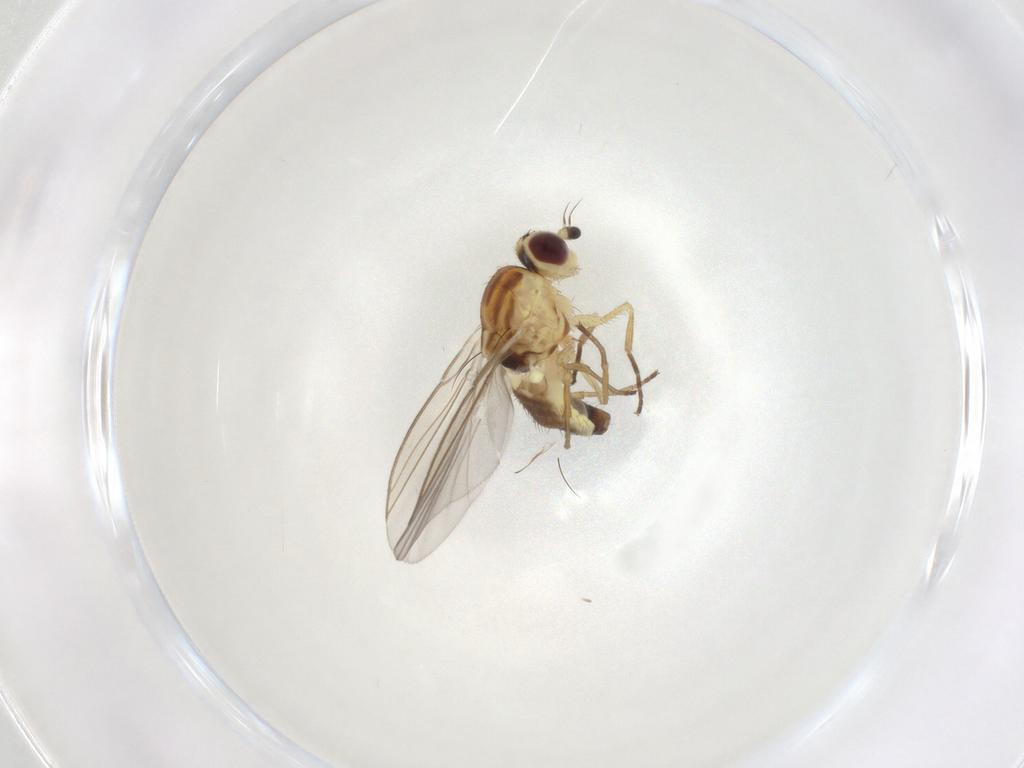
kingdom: Animalia
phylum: Arthropoda
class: Insecta
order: Diptera
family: Agromyzidae
